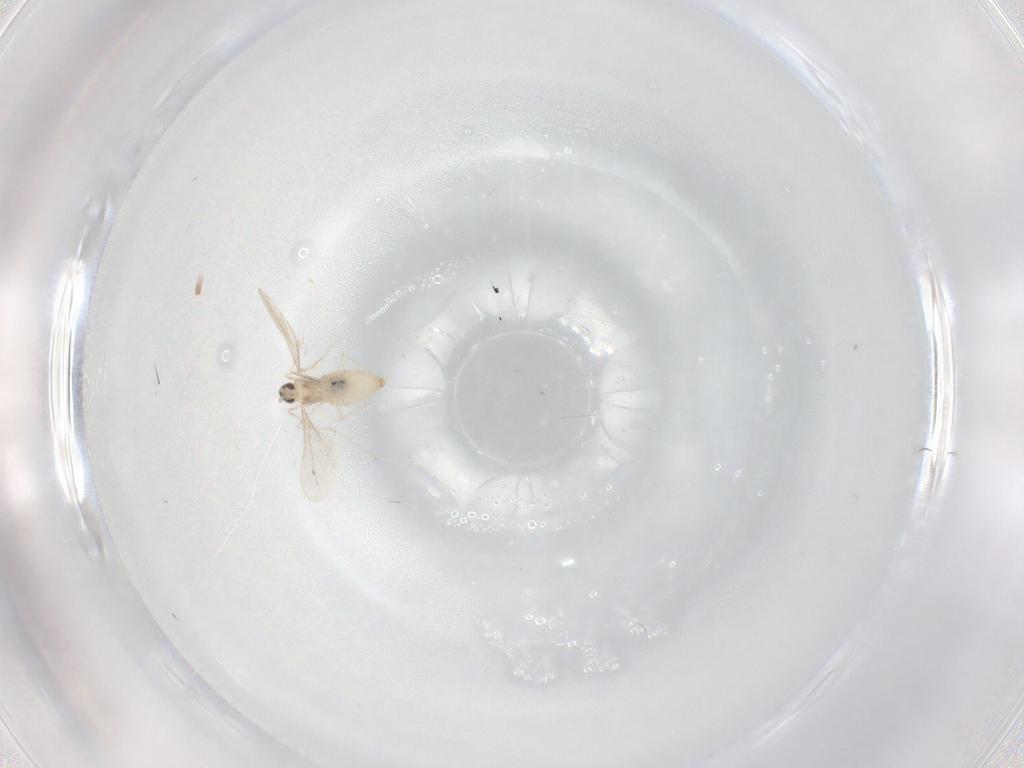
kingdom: Animalia
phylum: Arthropoda
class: Insecta
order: Diptera
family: Cecidomyiidae
